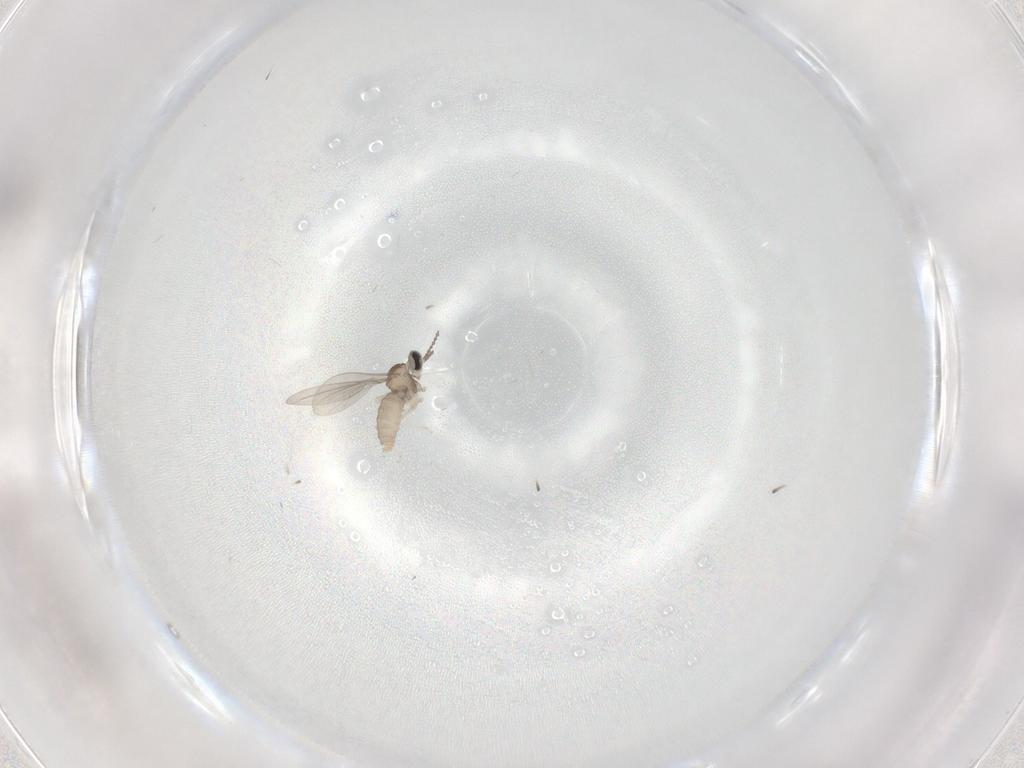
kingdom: Animalia
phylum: Arthropoda
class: Insecta
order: Diptera
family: Cecidomyiidae
